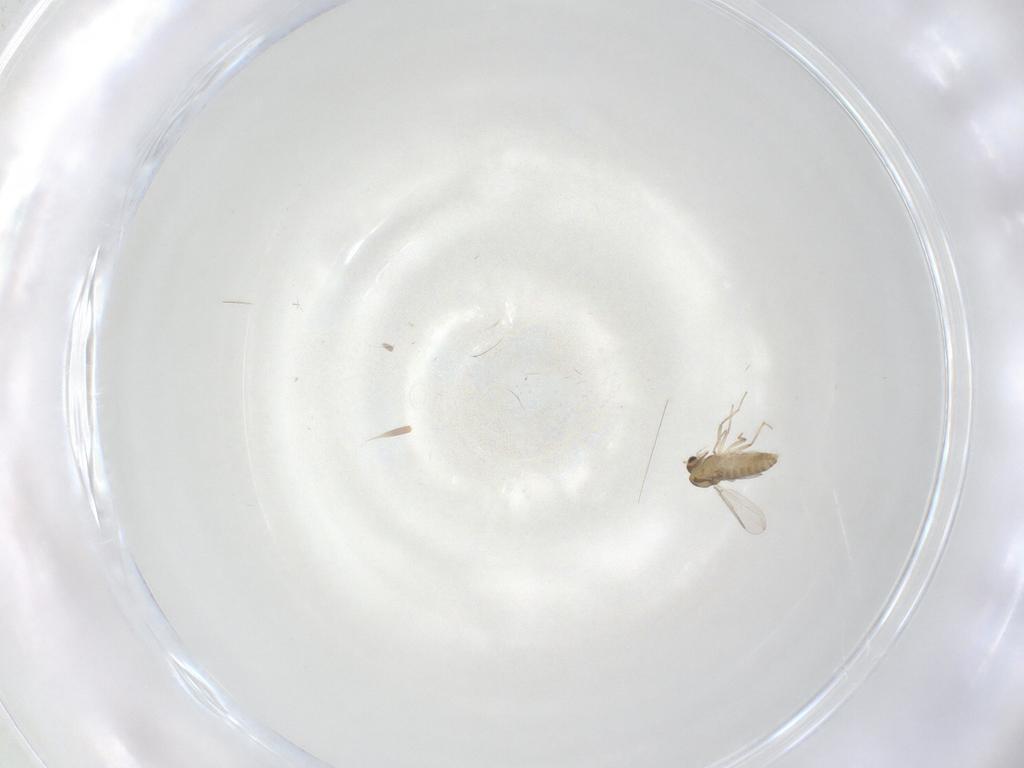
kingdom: Animalia
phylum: Arthropoda
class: Insecta
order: Diptera
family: Chironomidae
